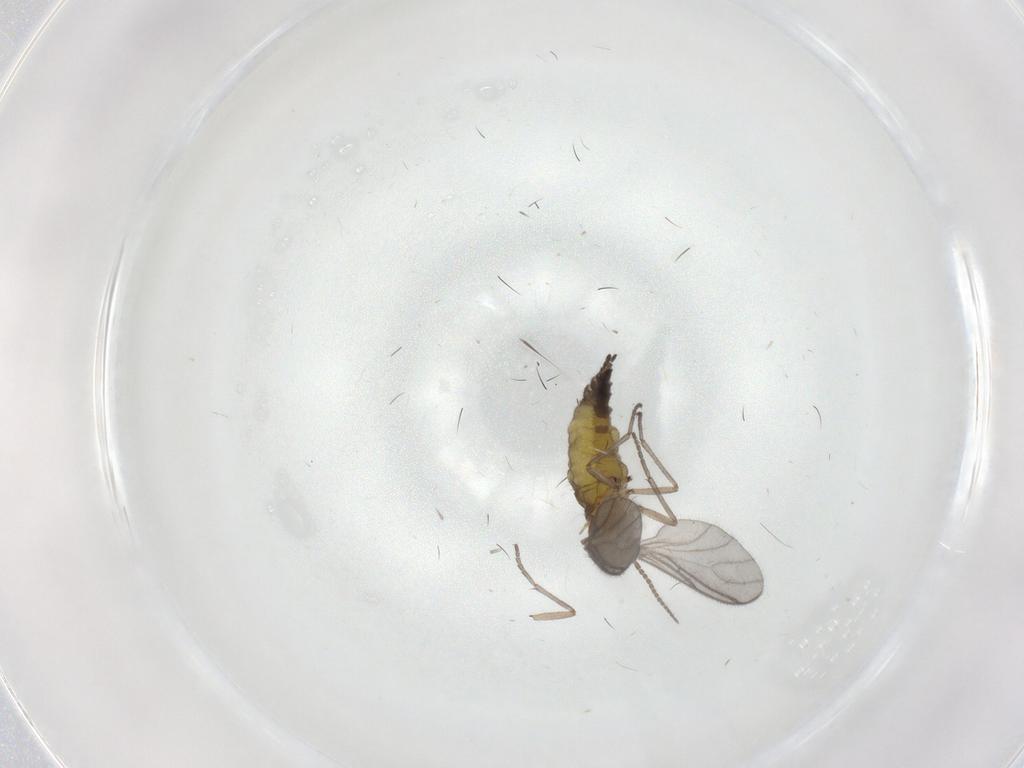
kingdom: Animalia
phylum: Arthropoda
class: Insecta
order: Diptera
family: Sciaridae
